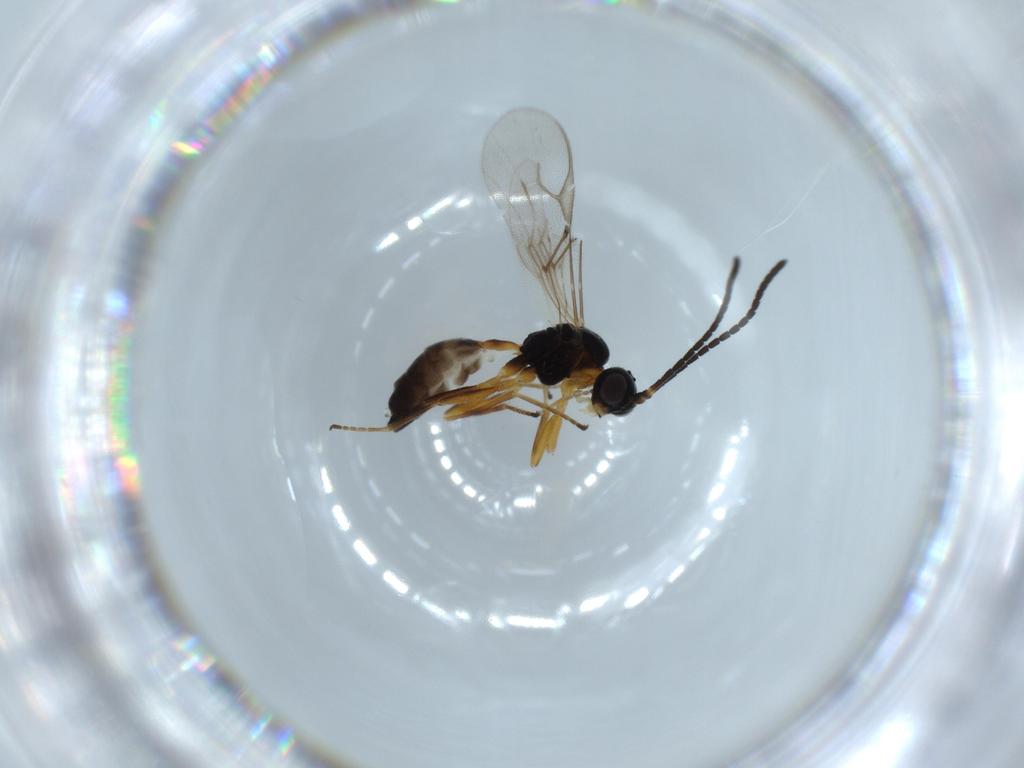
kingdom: Animalia
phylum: Arthropoda
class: Insecta
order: Hymenoptera
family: Braconidae
